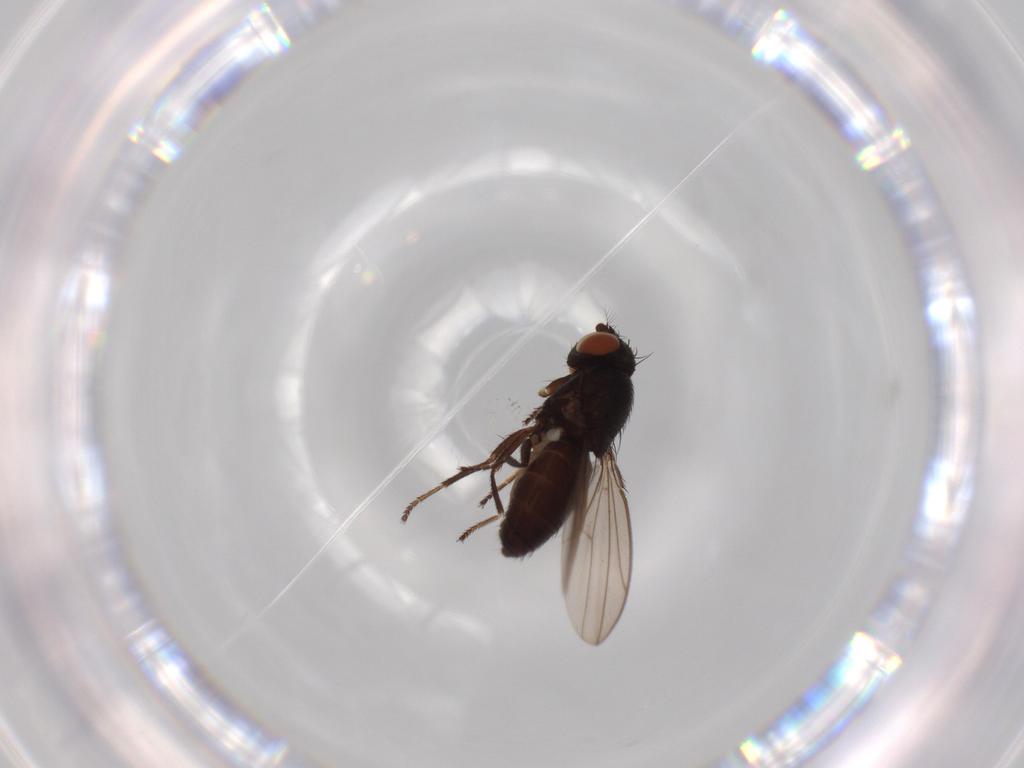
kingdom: Animalia
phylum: Arthropoda
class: Insecta
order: Diptera
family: Ephydridae
